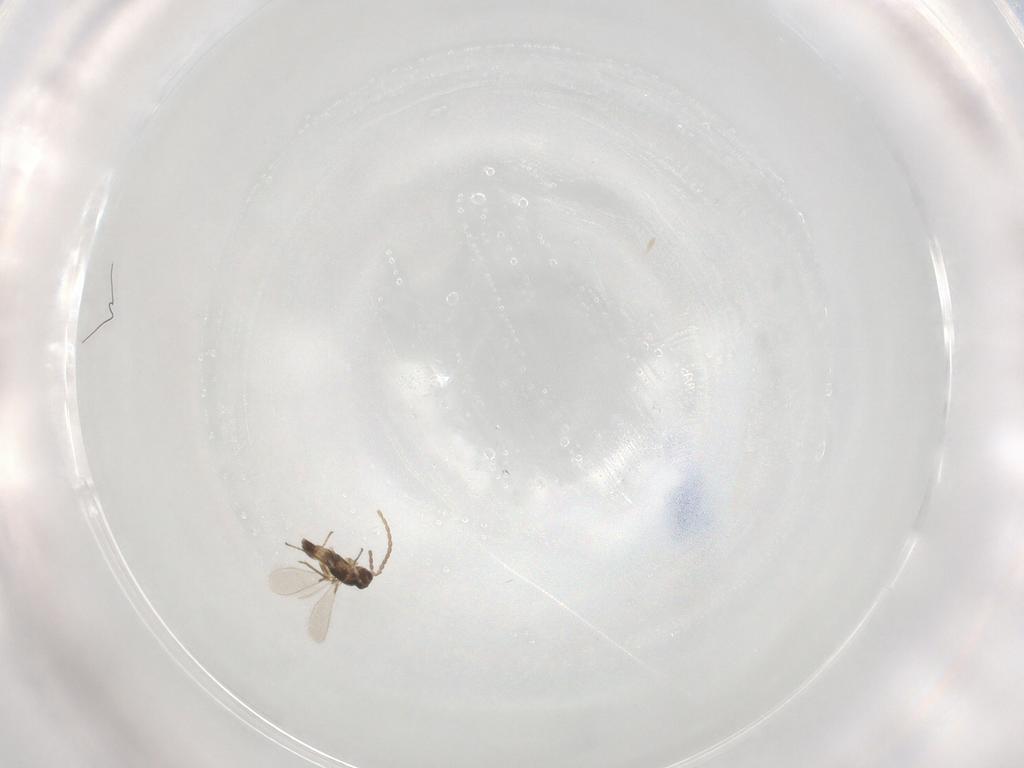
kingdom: Animalia
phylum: Arthropoda
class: Insecta
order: Hymenoptera
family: Mymaridae
